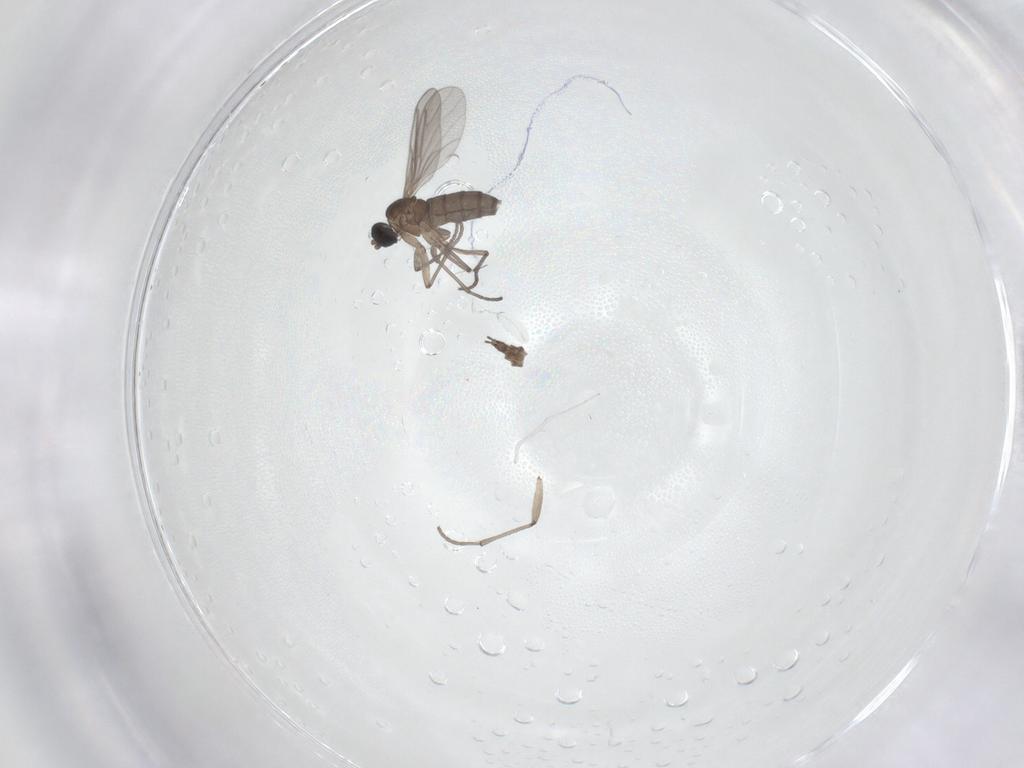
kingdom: Animalia
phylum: Arthropoda
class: Insecta
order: Diptera
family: Sciaridae
